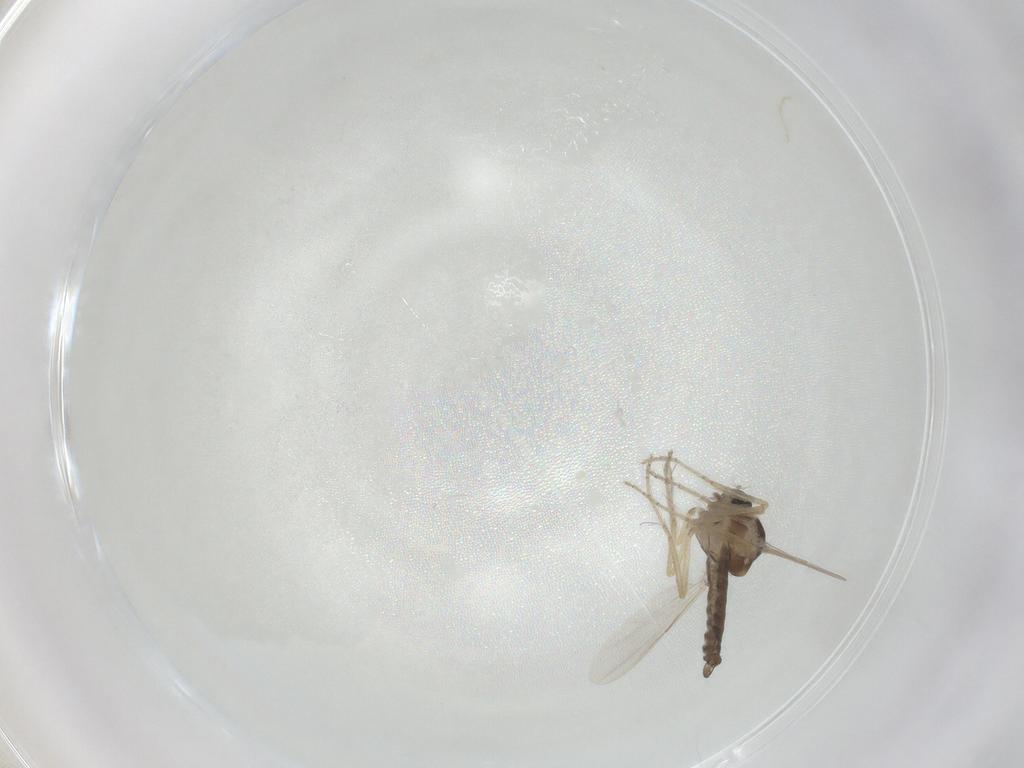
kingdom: Animalia
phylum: Arthropoda
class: Insecta
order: Diptera
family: Ceratopogonidae
